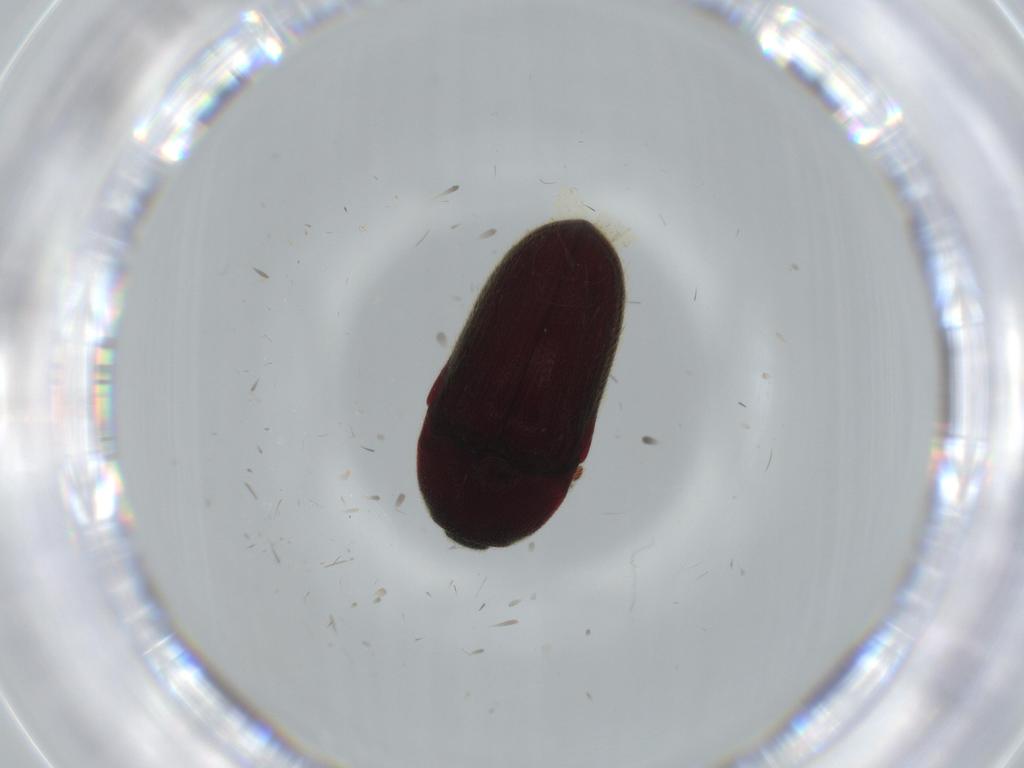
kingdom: Animalia
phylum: Arthropoda
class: Insecta
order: Coleoptera
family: Throscidae
